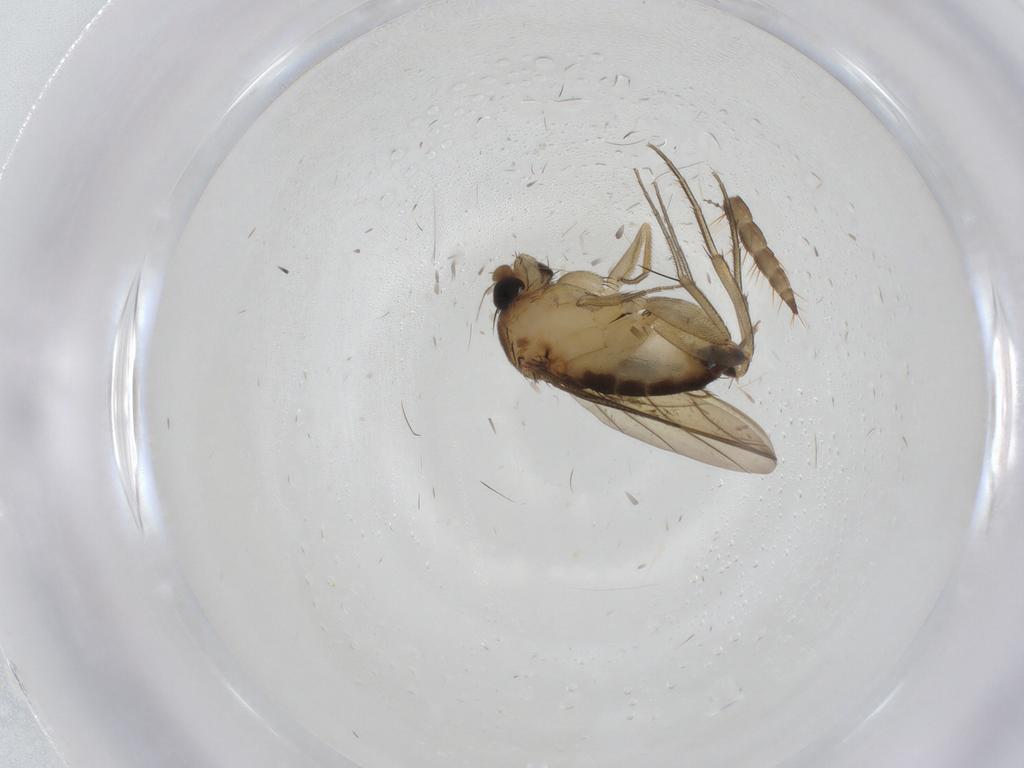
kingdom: Animalia
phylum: Arthropoda
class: Insecta
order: Diptera
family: Phoridae
